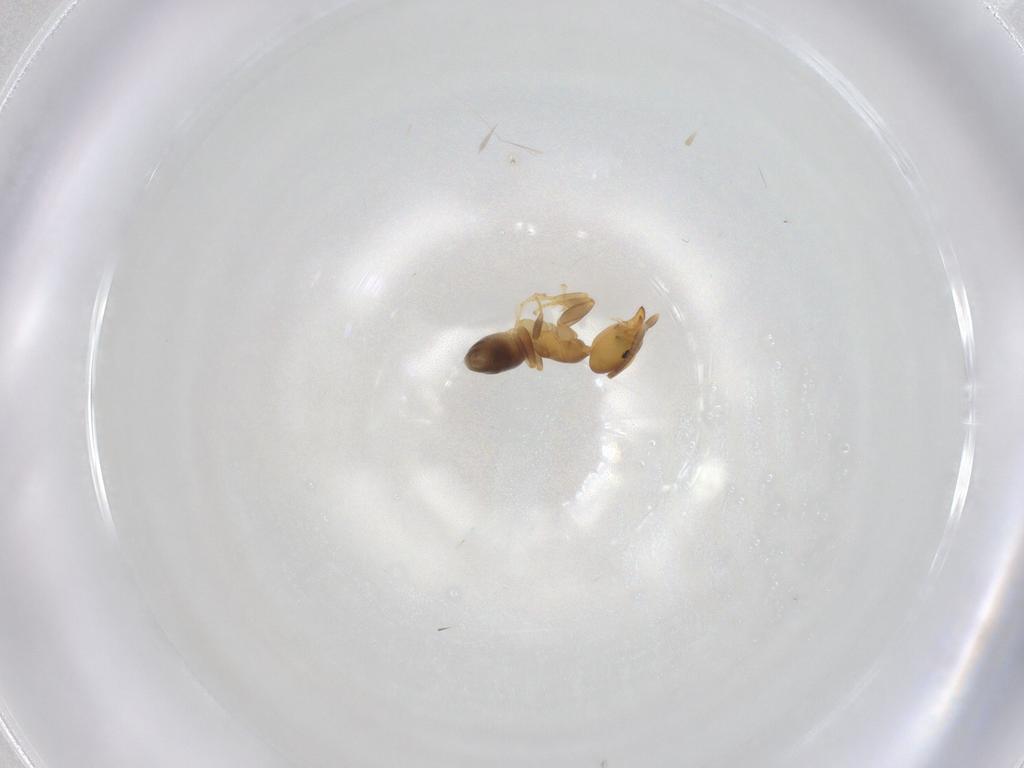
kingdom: Animalia
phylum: Arthropoda
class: Insecta
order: Hymenoptera
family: Formicidae
